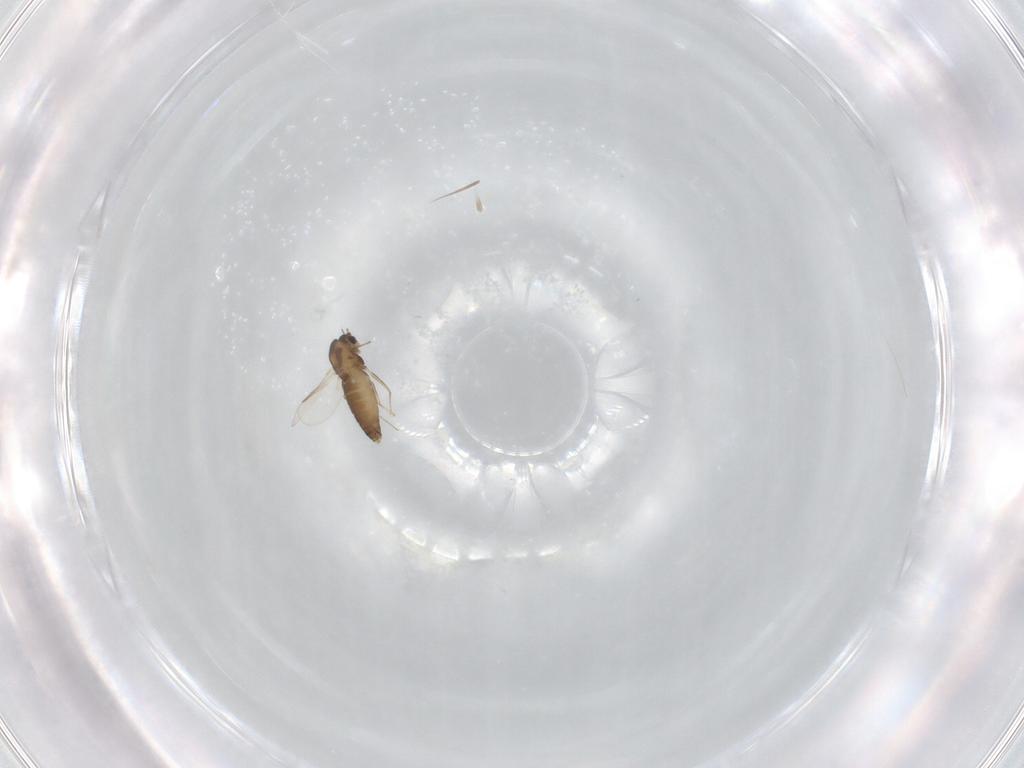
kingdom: Animalia
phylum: Arthropoda
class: Insecta
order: Diptera
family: Chironomidae
